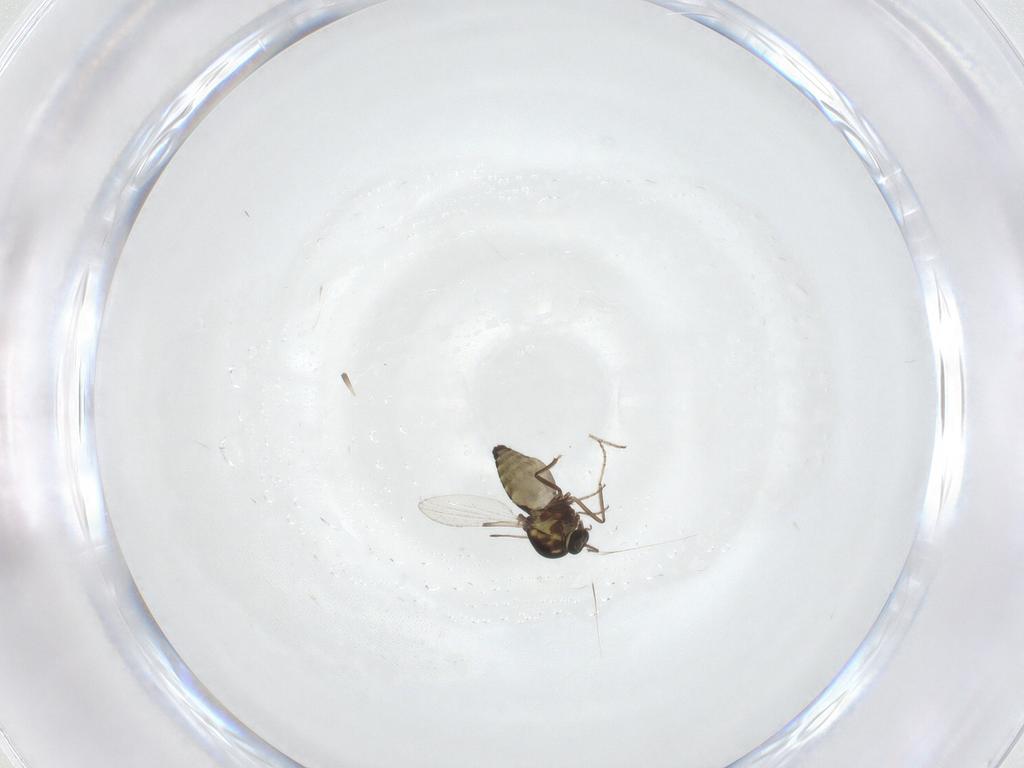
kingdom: Animalia
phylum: Arthropoda
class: Insecta
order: Diptera
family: Ceratopogonidae
